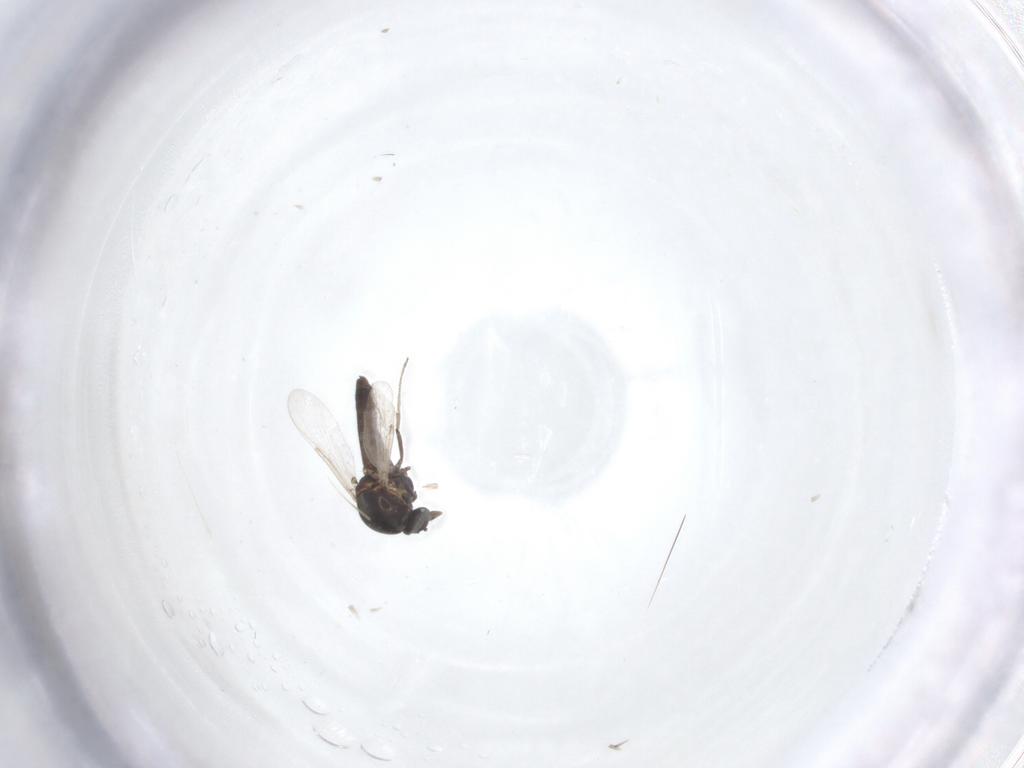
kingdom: Animalia
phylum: Arthropoda
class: Insecta
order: Diptera
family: Ceratopogonidae
